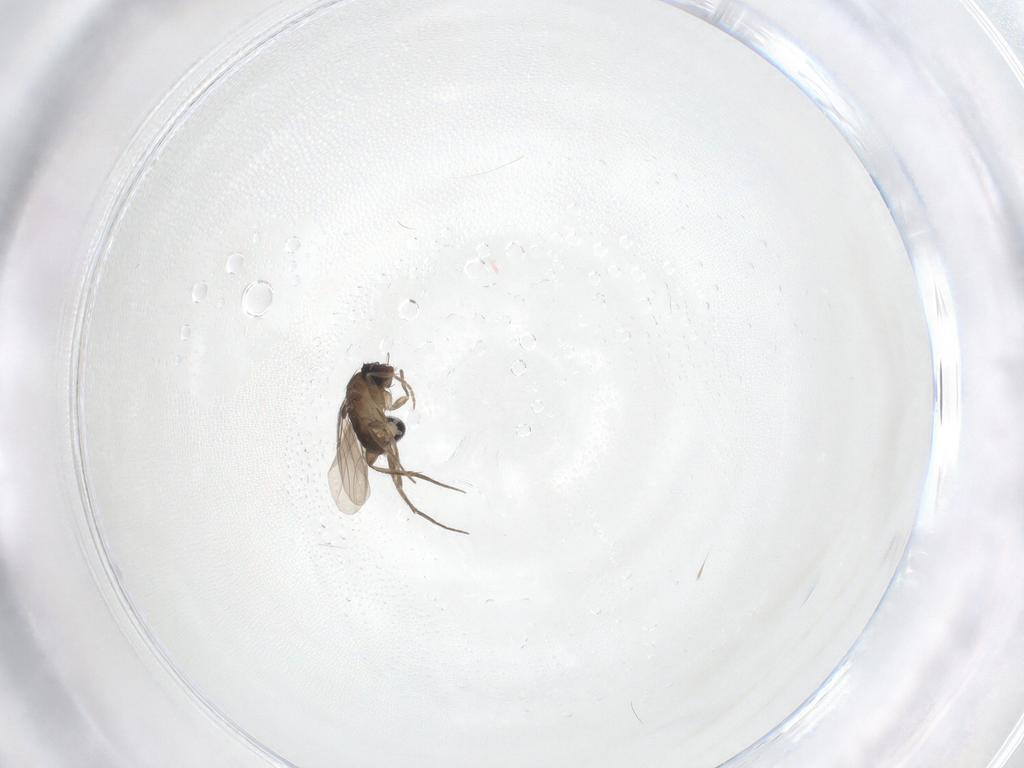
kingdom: Animalia
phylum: Arthropoda
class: Insecta
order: Diptera
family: Phoridae
